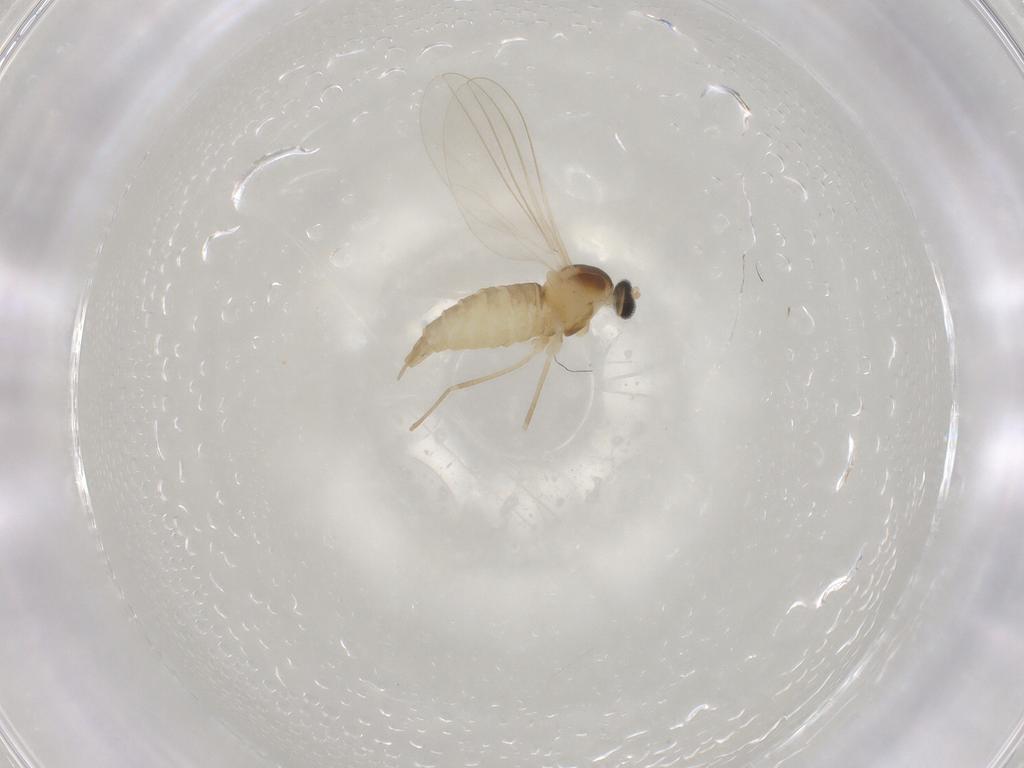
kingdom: Animalia
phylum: Arthropoda
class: Insecta
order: Diptera
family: Cecidomyiidae
